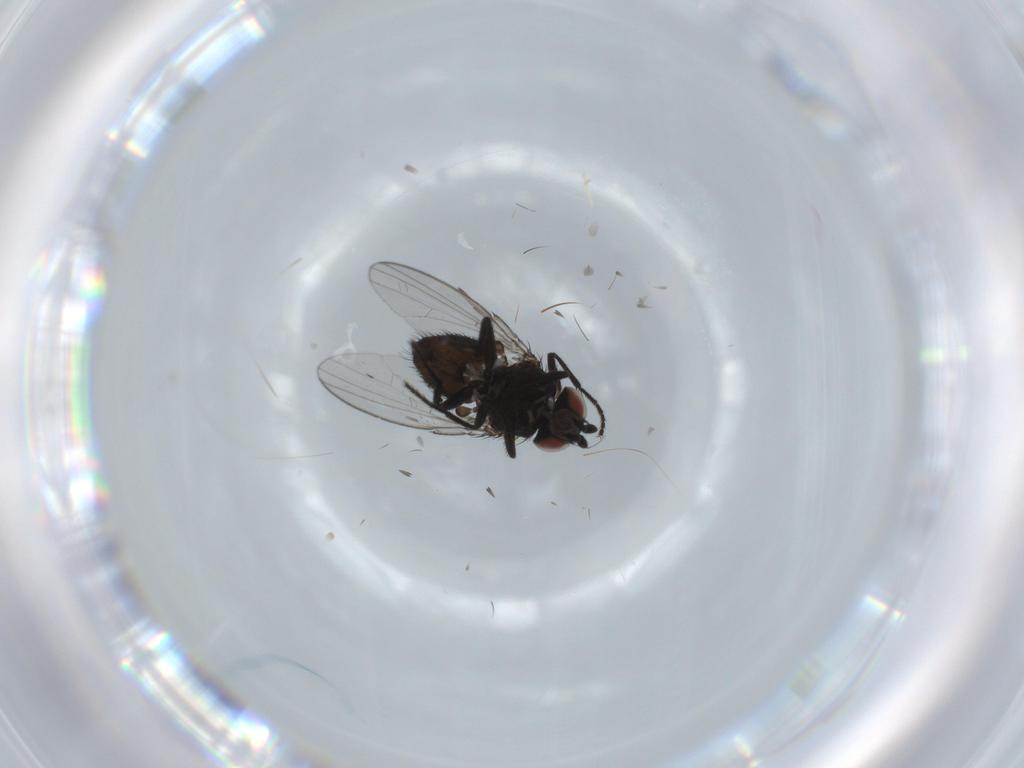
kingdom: Animalia
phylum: Arthropoda
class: Insecta
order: Diptera
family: Milichiidae
